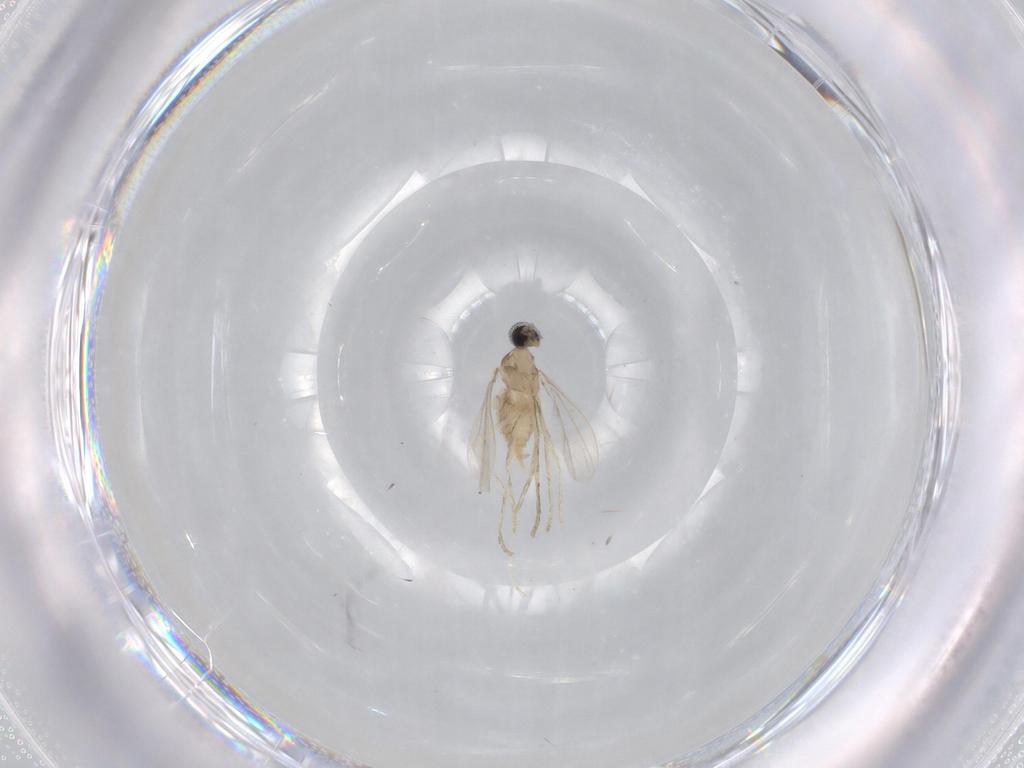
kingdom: Animalia
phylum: Arthropoda
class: Insecta
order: Diptera
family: Cecidomyiidae
